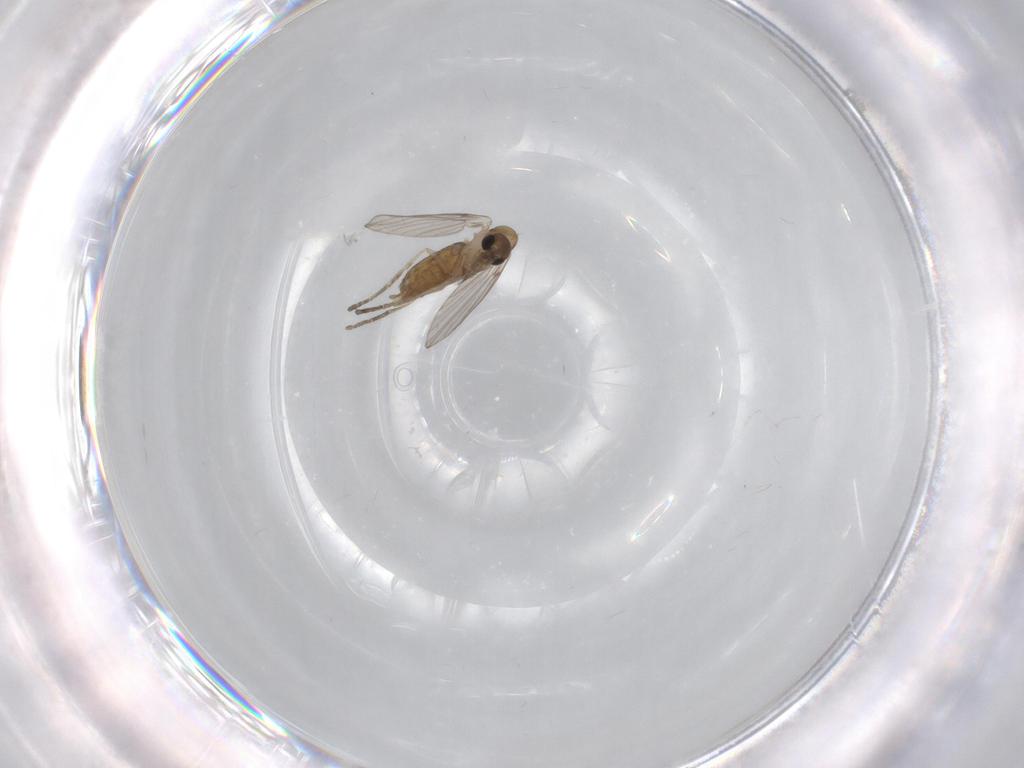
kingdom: Animalia
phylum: Arthropoda
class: Insecta
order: Diptera
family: Psychodidae
